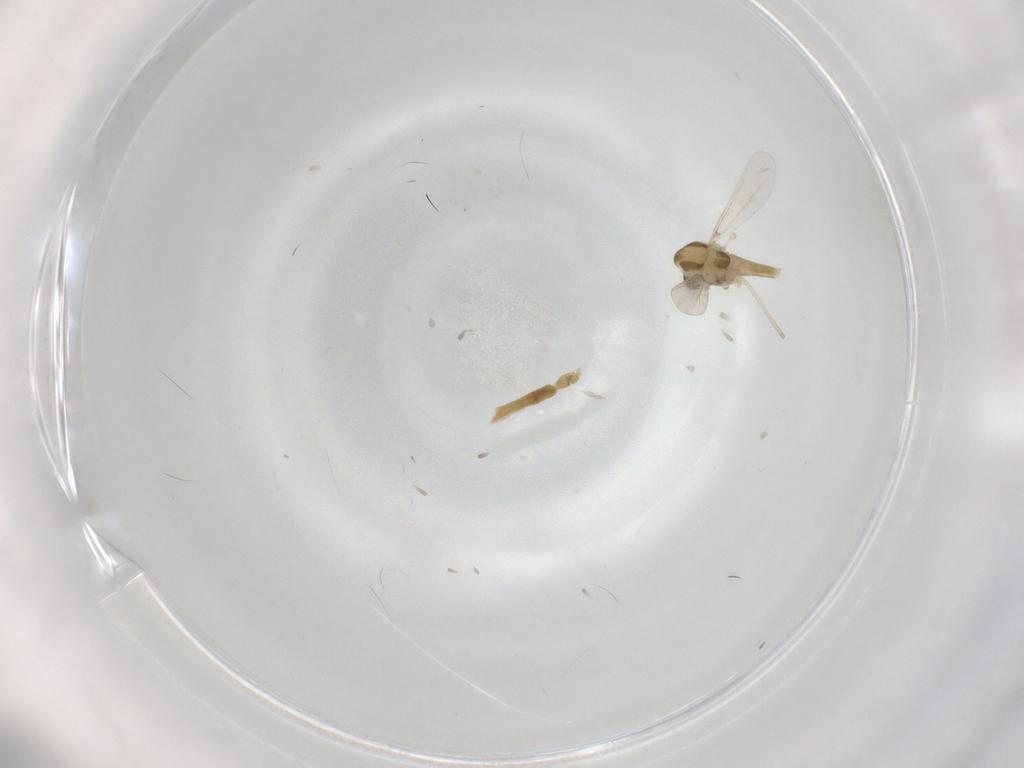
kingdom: Animalia
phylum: Arthropoda
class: Insecta
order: Diptera
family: Chironomidae
